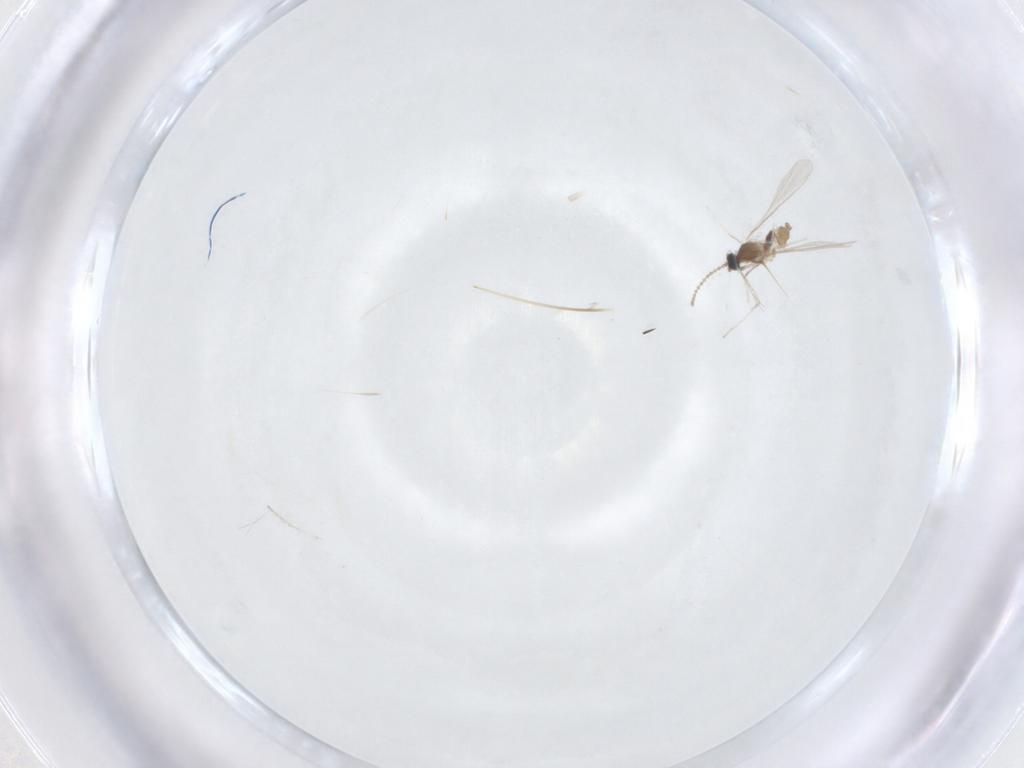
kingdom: Animalia
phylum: Arthropoda
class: Insecta
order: Diptera
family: Cecidomyiidae
